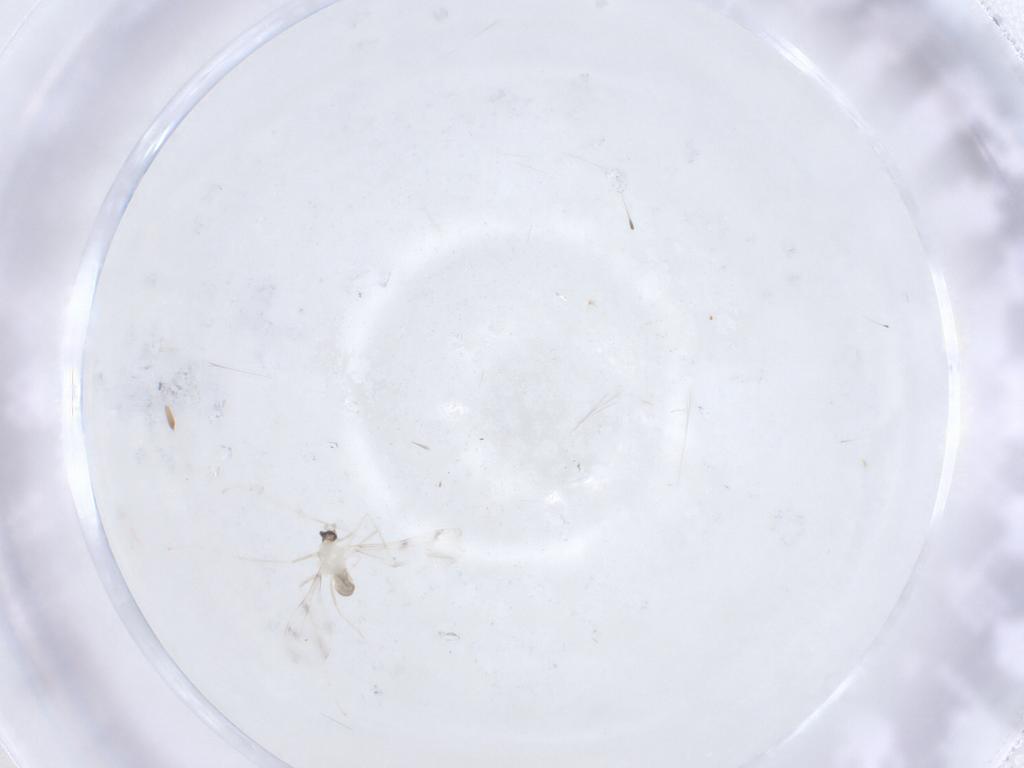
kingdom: Animalia
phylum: Arthropoda
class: Insecta
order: Diptera
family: Cecidomyiidae
